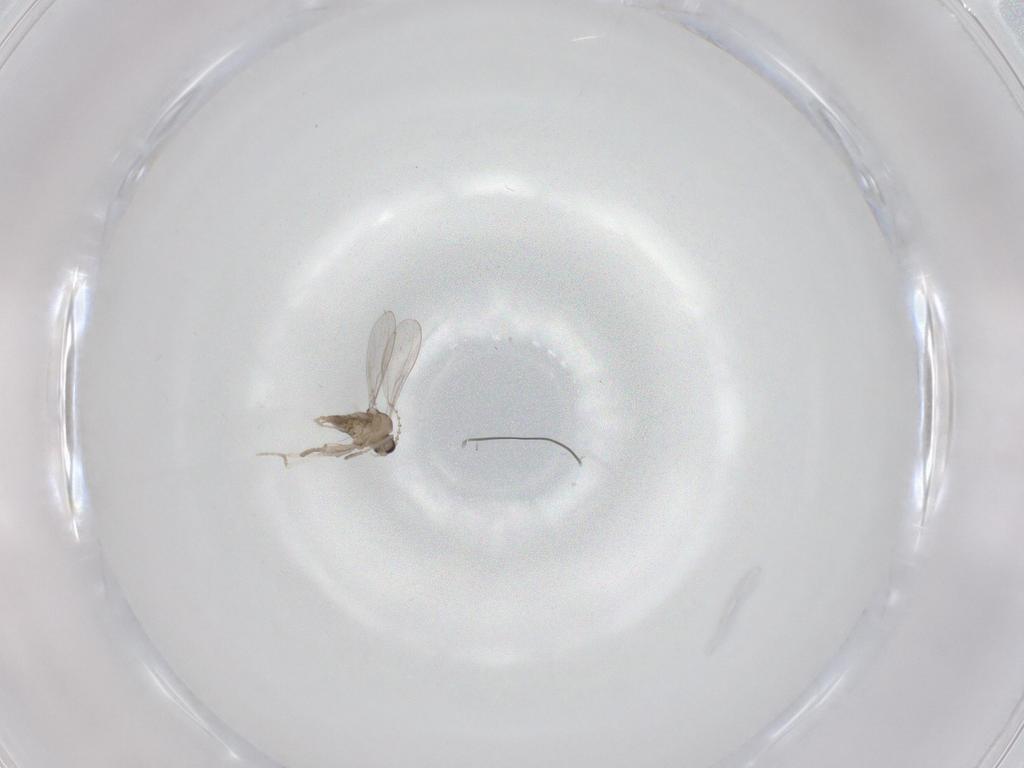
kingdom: Animalia
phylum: Arthropoda
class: Insecta
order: Diptera
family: Cecidomyiidae
